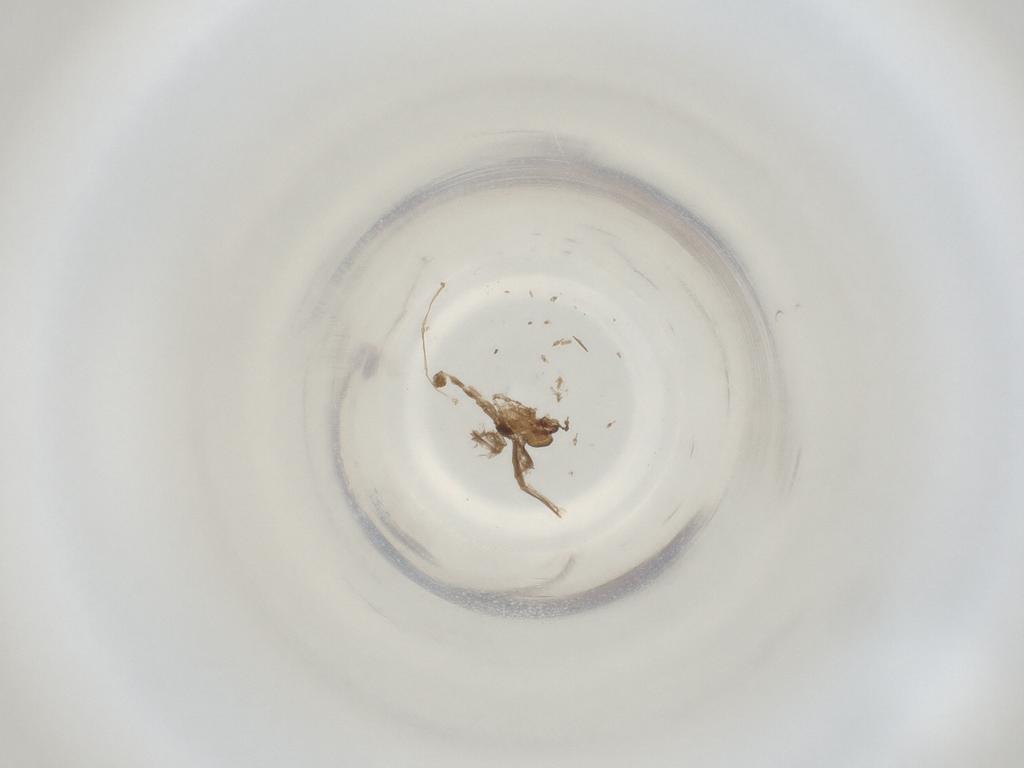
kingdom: Animalia
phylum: Arthropoda
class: Insecta
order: Diptera
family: Cecidomyiidae
